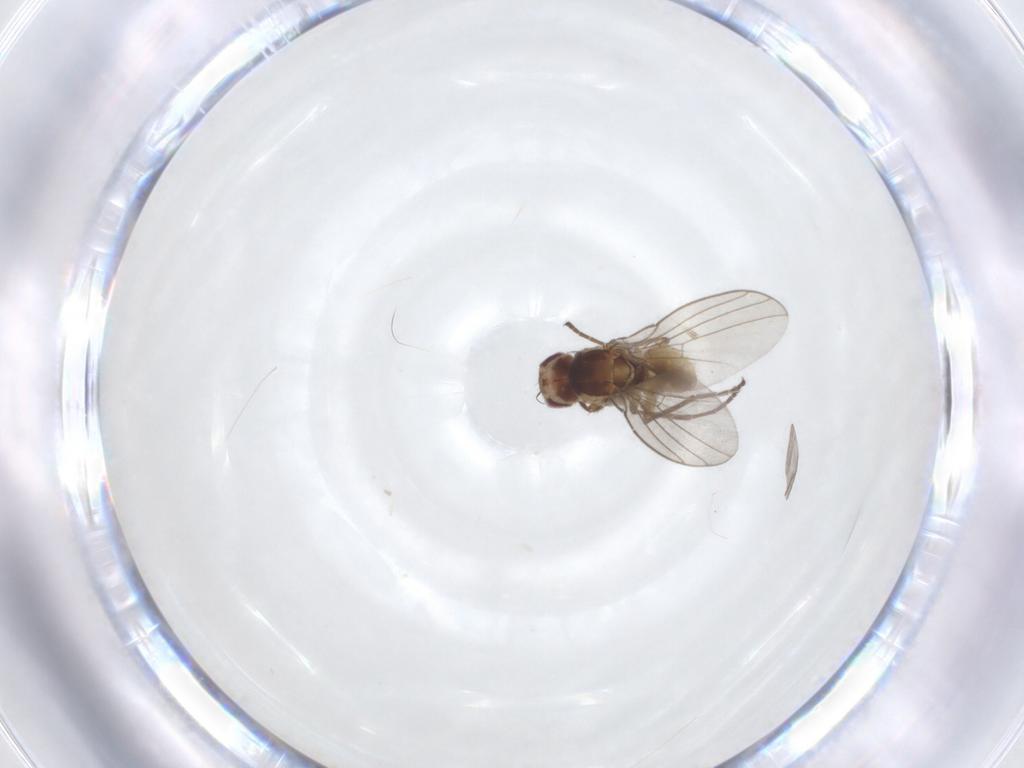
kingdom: Animalia
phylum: Arthropoda
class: Insecta
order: Diptera
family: Agromyzidae
